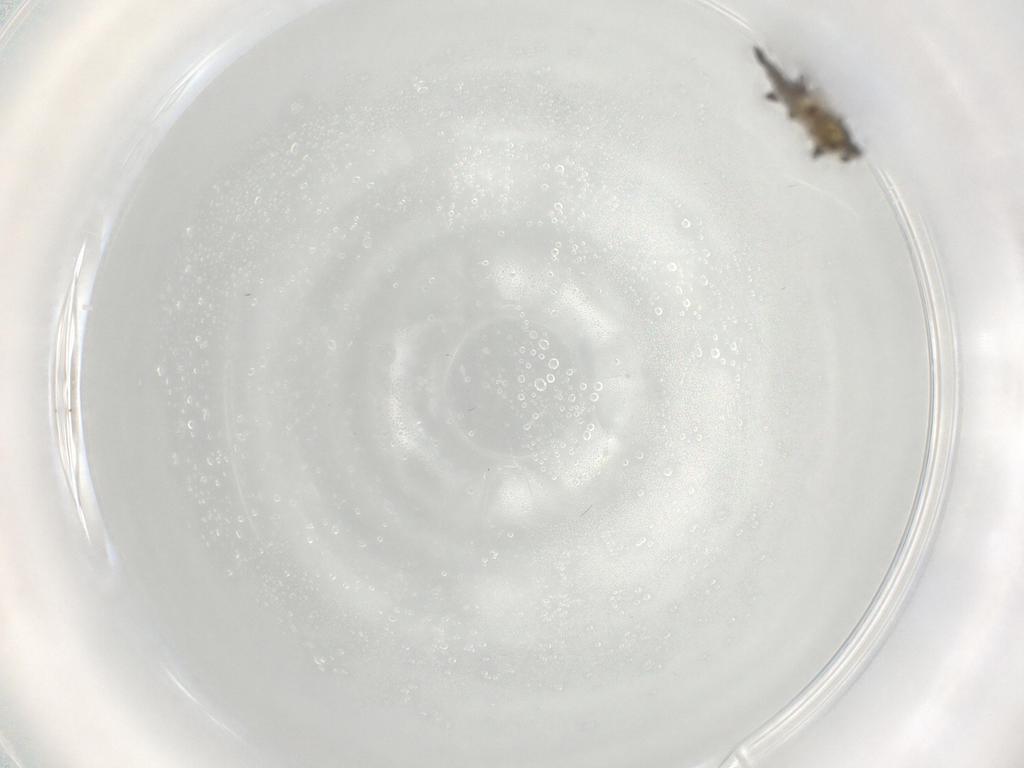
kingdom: Animalia
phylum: Arthropoda
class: Insecta
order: Diptera
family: Chironomidae
